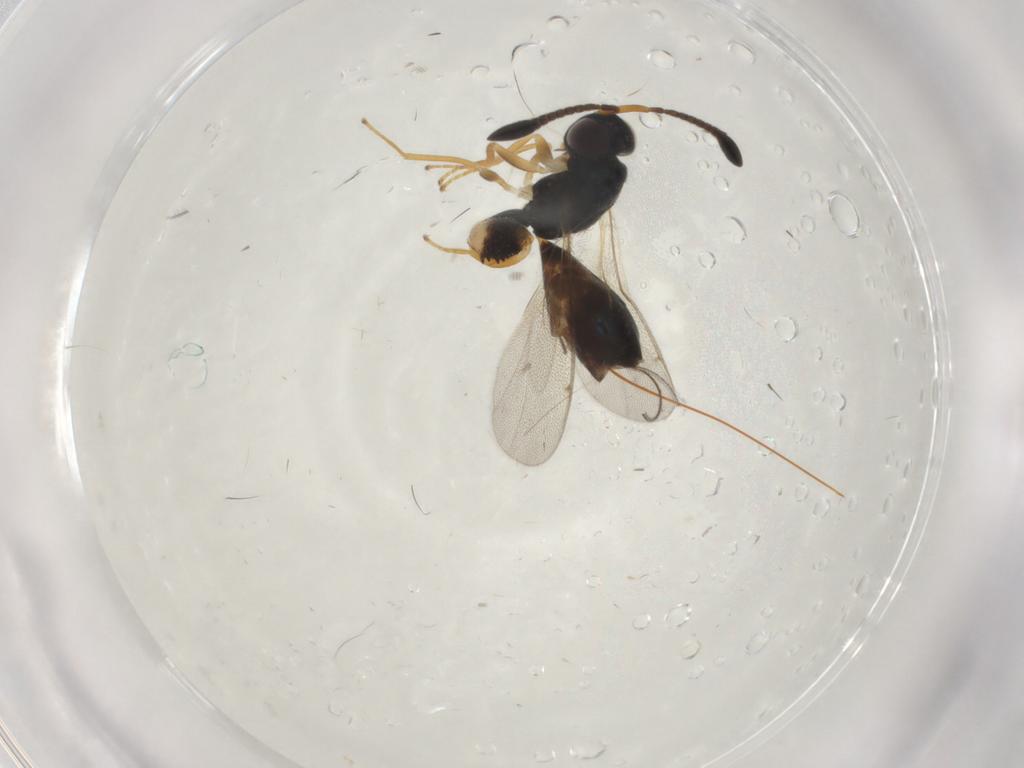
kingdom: Animalia
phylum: Arthropoda
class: Insecta
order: Hymenoptera
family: Torymidae
